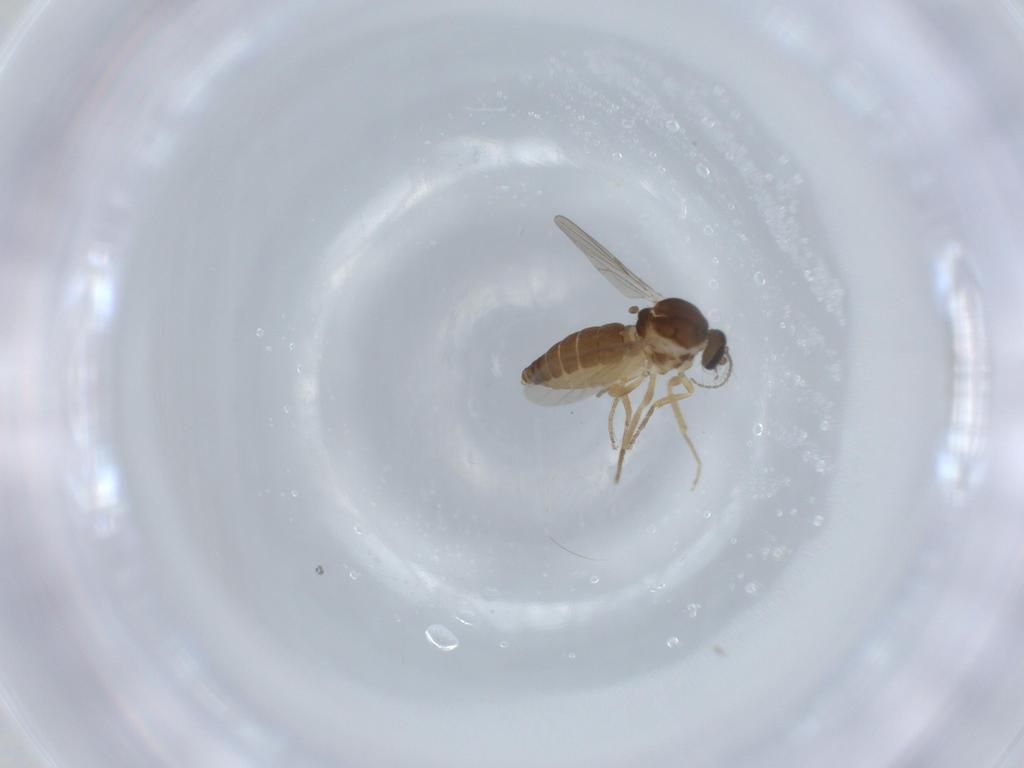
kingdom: Animalia
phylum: Arthropoda
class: Insecta
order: Diptera
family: Ceratopogonidae
